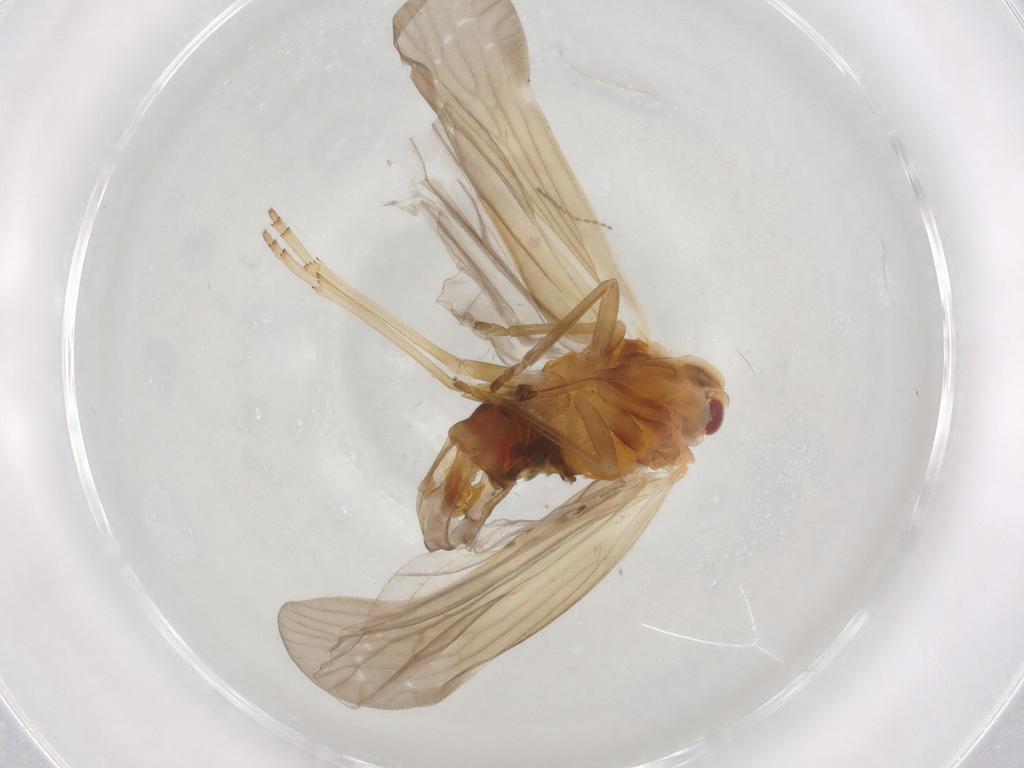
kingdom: Animalia
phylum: Arthropoda
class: Insecta
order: Hemiptera
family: Derbidae
